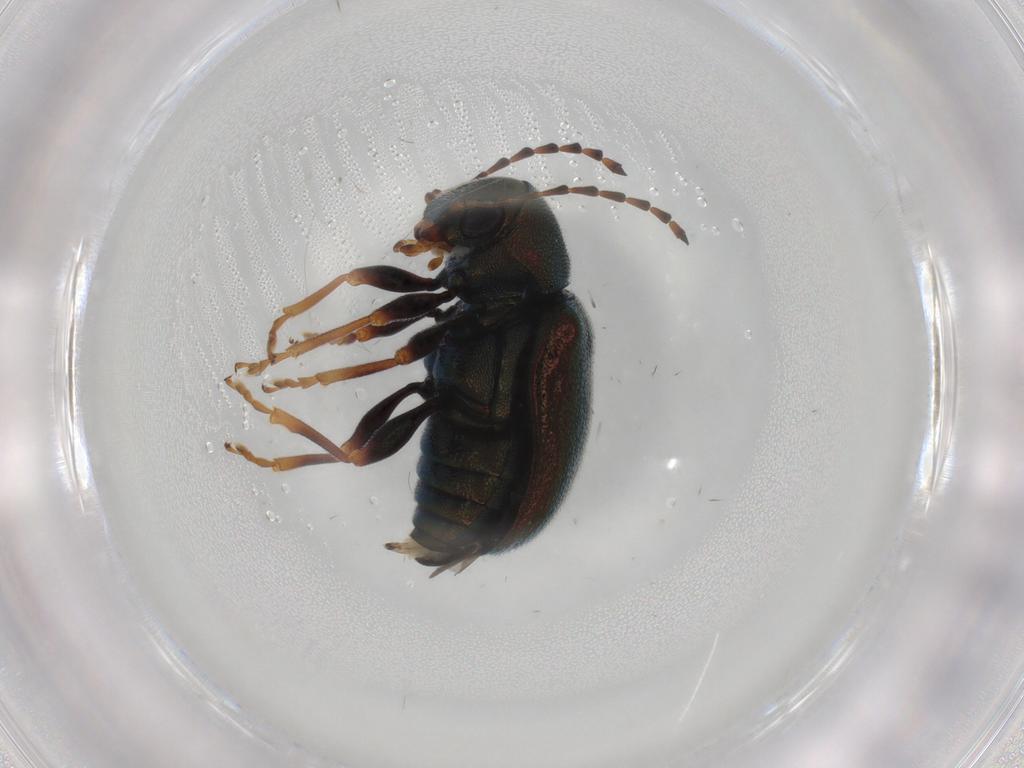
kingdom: Animalia
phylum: Arthropoda
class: Insecta
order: Coleoptera
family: Chrysomelidae
